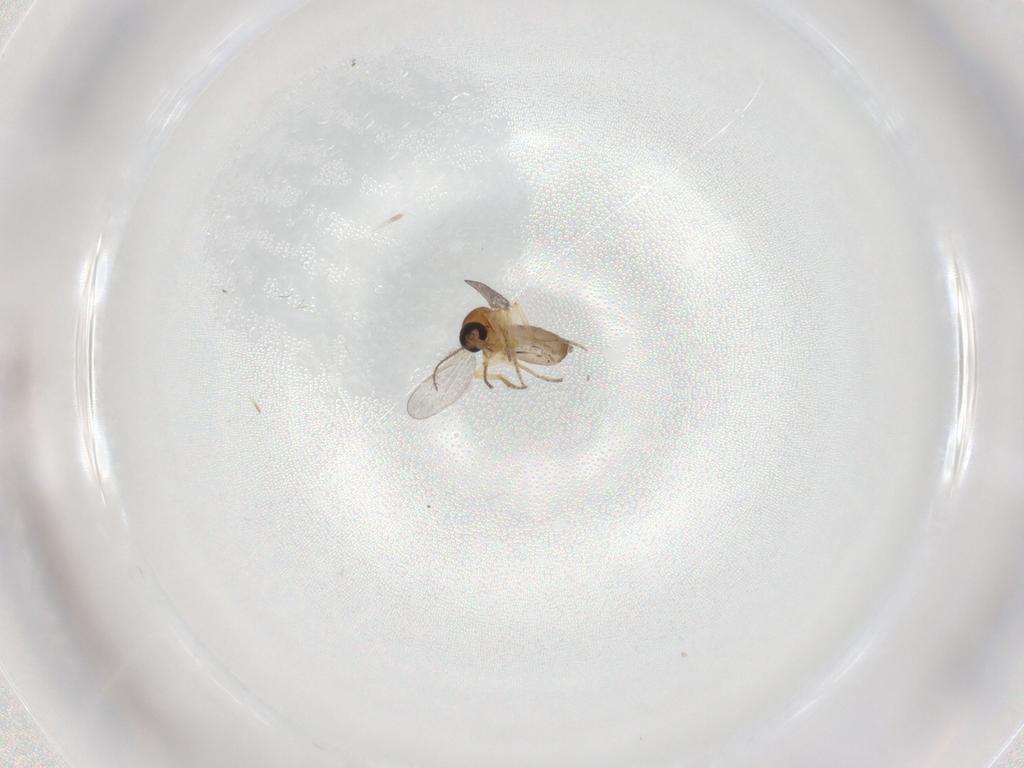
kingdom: Animalia
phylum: Arthropoda
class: Insecta
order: Diptera
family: Ceratopogonidae
